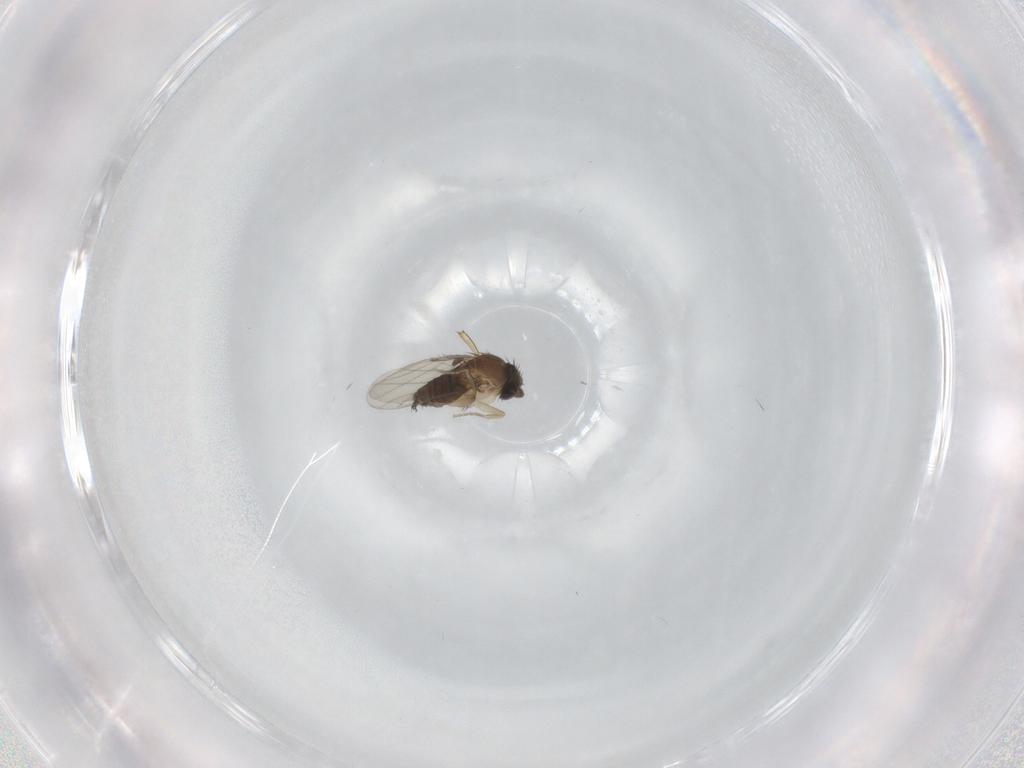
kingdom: Animalia
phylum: Arthropoda
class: Insecta
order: Diptera
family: Phoridae
